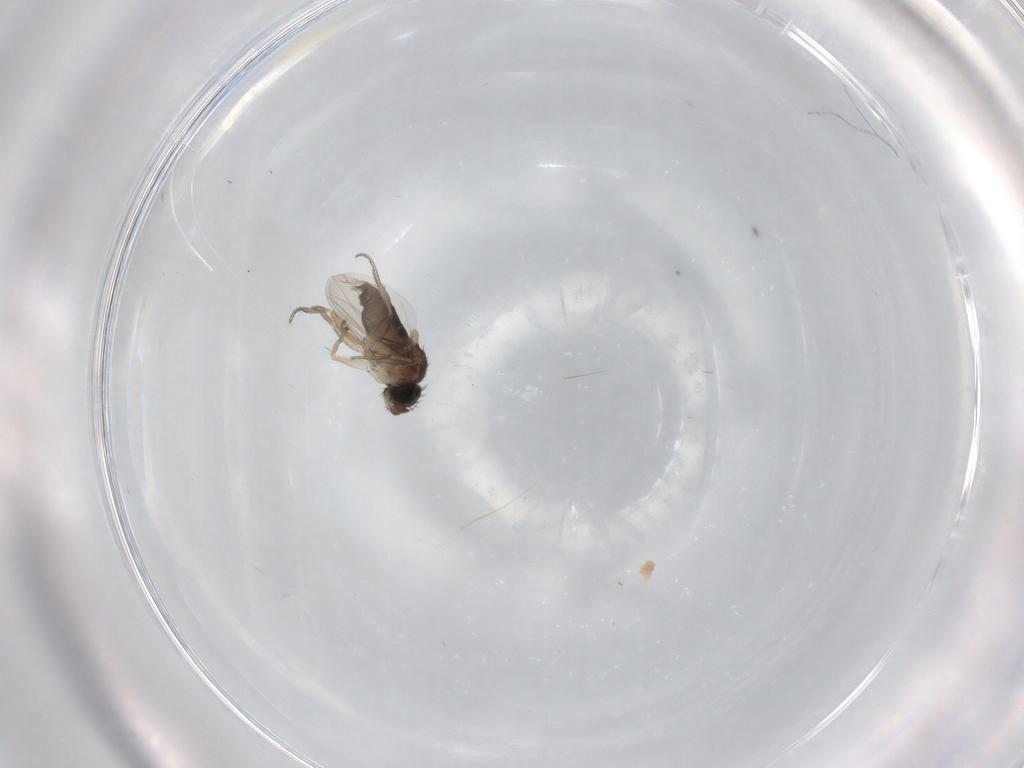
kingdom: Animalia
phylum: Arthropoda
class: Insecta
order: Diptera
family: Phoridae
